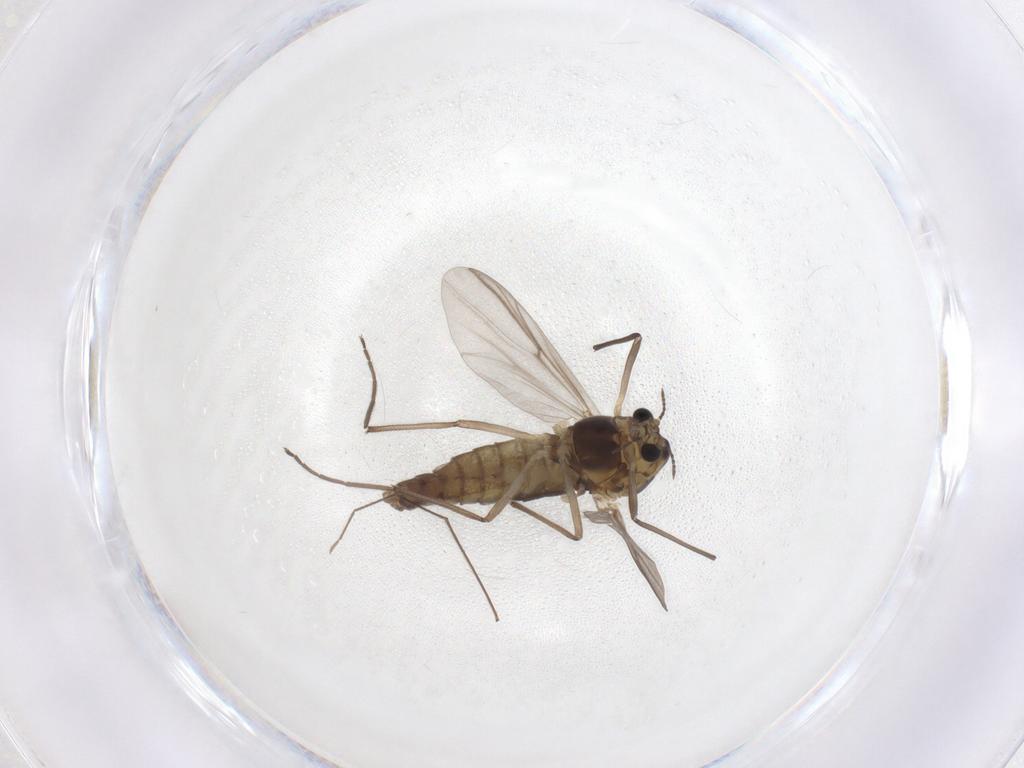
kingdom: Animalia
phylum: Arthropoda
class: Insecta
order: Diptera
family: Chironomidae
